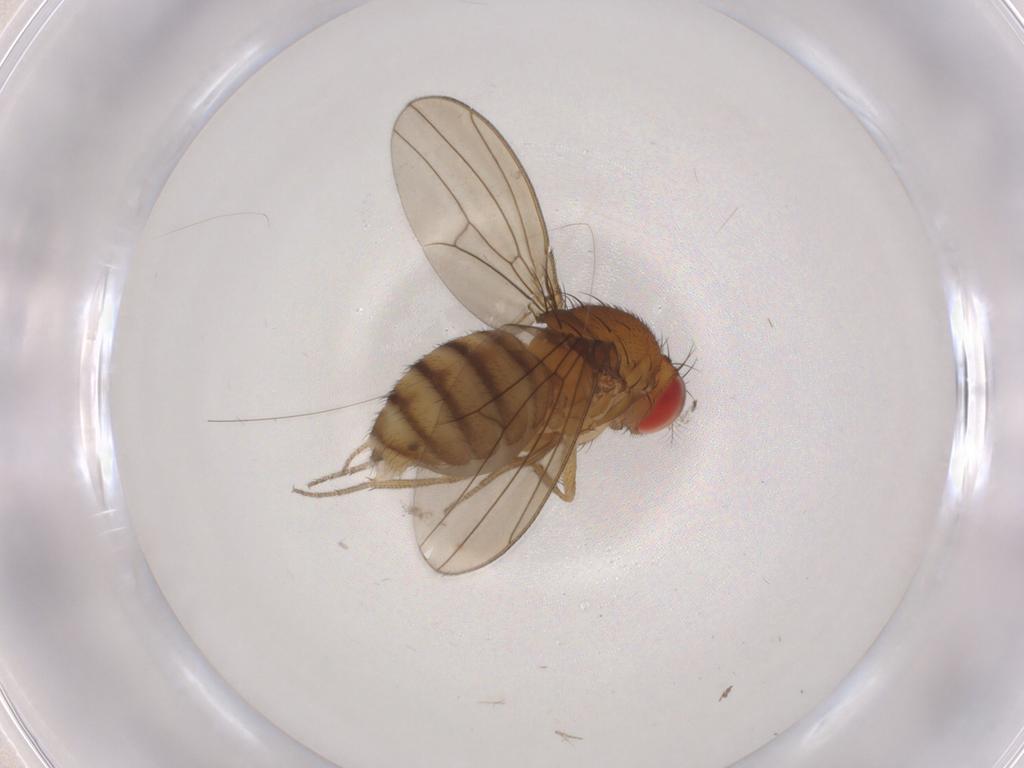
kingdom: Animalia
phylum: Arthropoda
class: Insecta
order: Diptera
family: Drosophilidae
